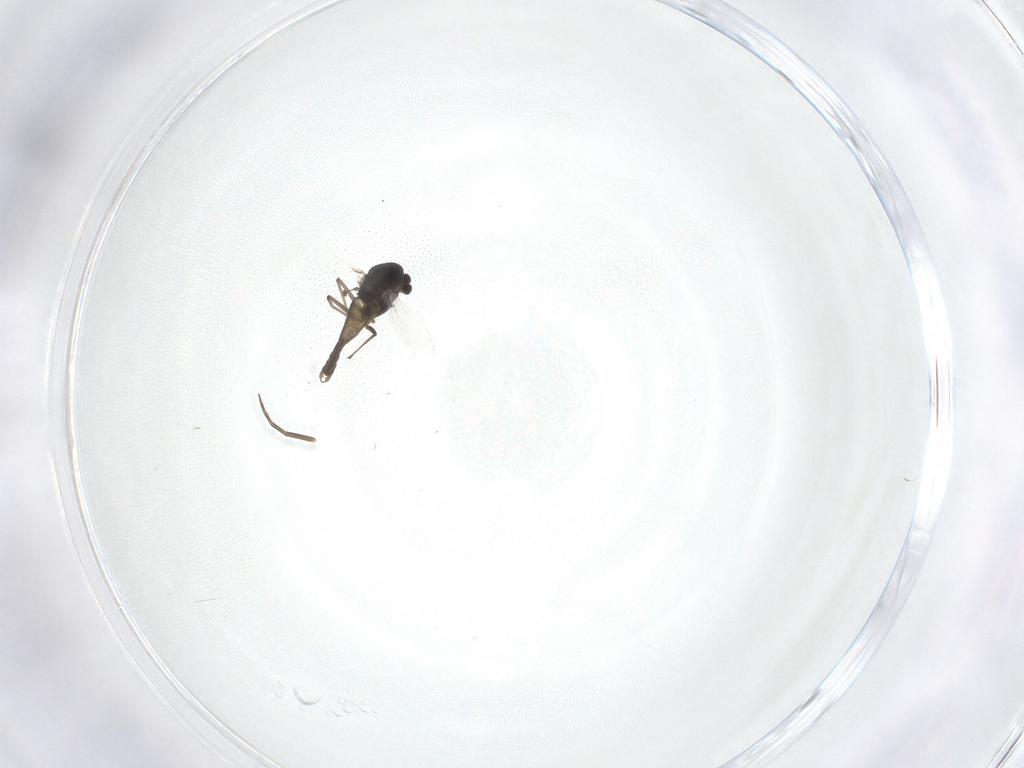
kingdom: Animalia
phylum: Arthropoda
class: Insecta
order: Diptera
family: Chironomidae
